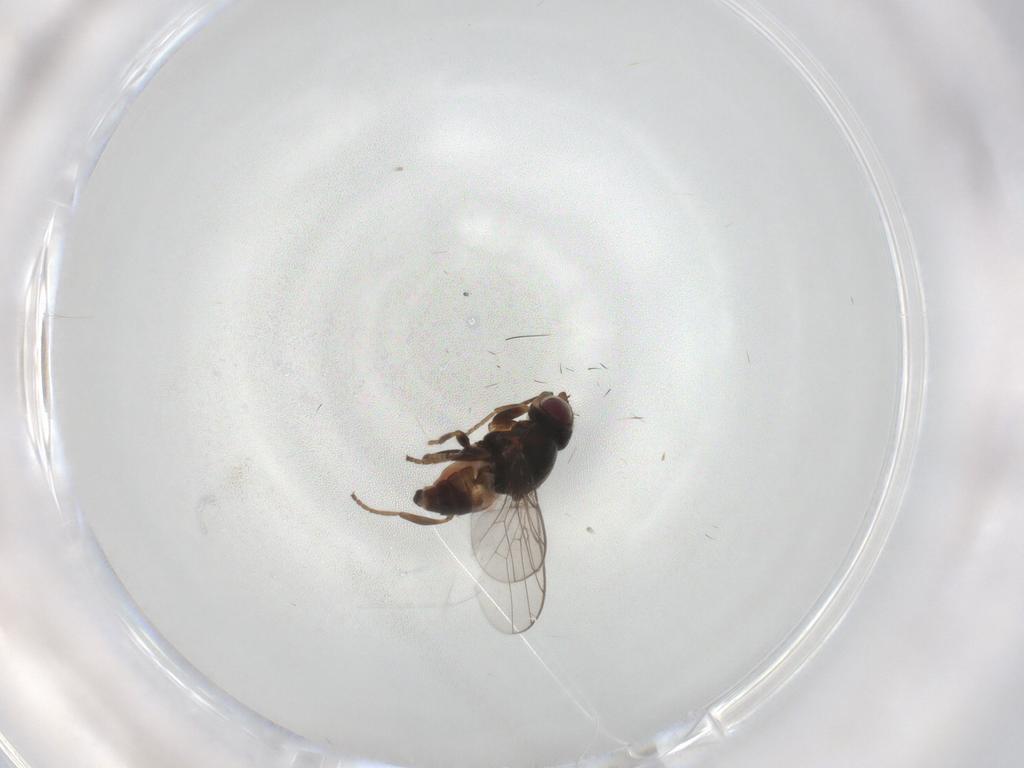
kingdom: Animalia
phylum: Arthropoda
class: Insecta
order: Diptera
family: Chloropidae
